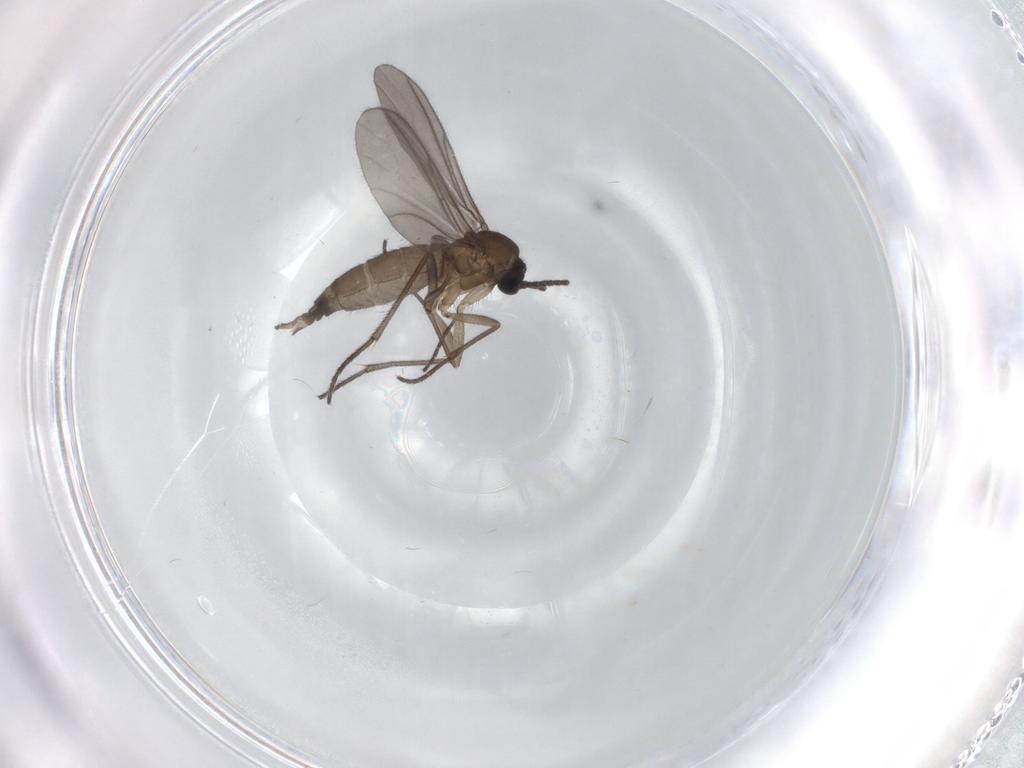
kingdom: Animalia
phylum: Arthropoda
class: Insecta
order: Diptera
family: Sciaridae
